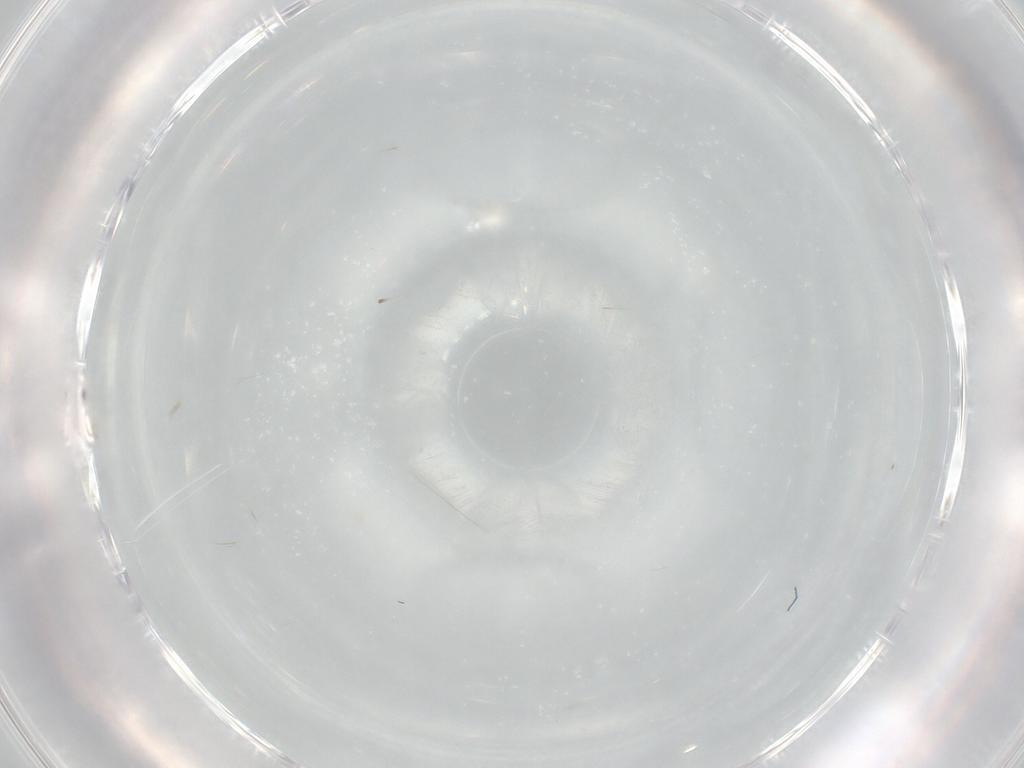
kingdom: Animalia
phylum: Arthropoda
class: Collembola
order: Entomobryomorpha
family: Entomobryidae
